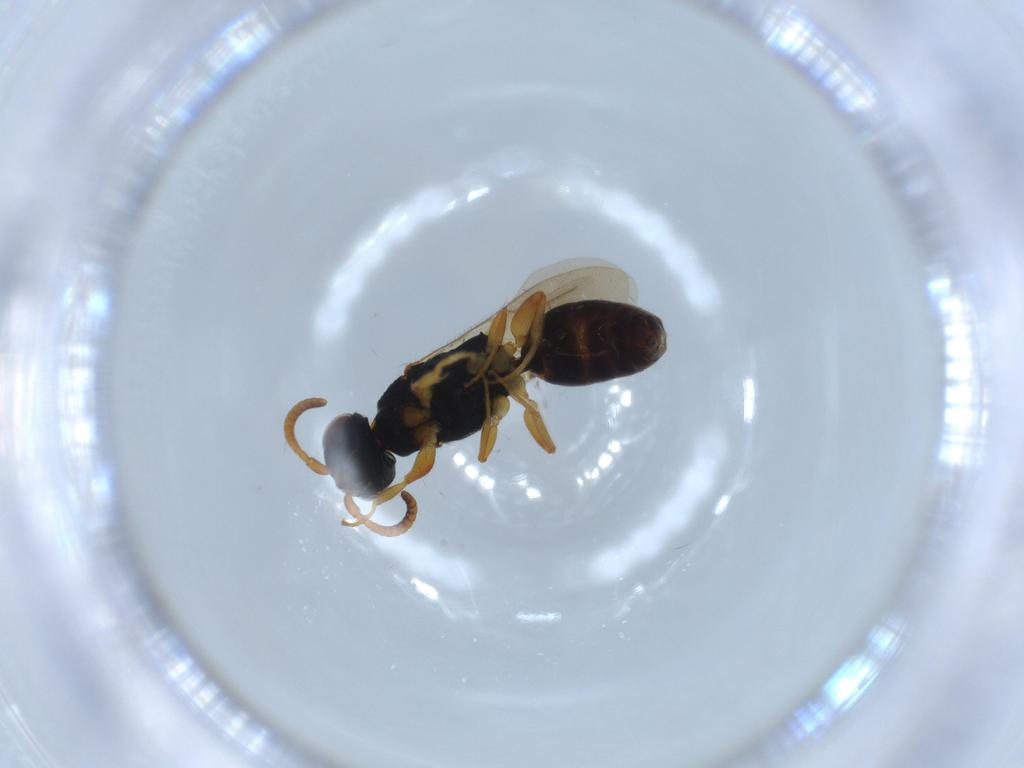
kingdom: Animalia
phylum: Arthropoda
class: Insecta
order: Hymenoptera
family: Bethylidae
